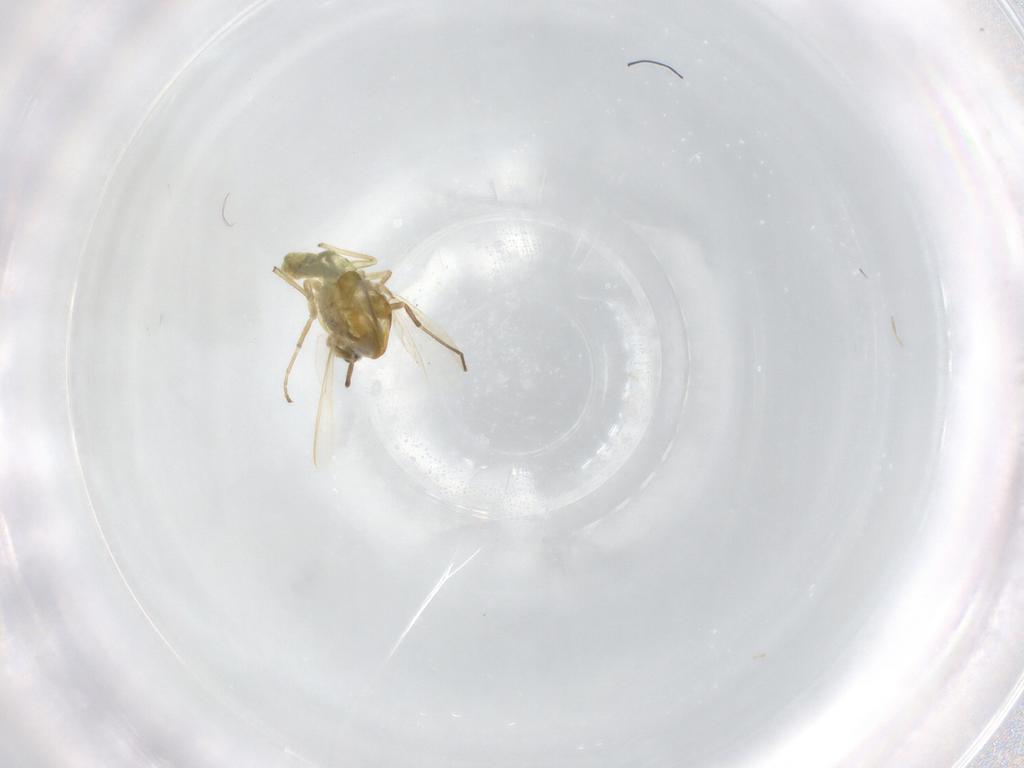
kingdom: Animalia
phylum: Arthropoda
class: Insecta
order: Diptera
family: Chironomidae
